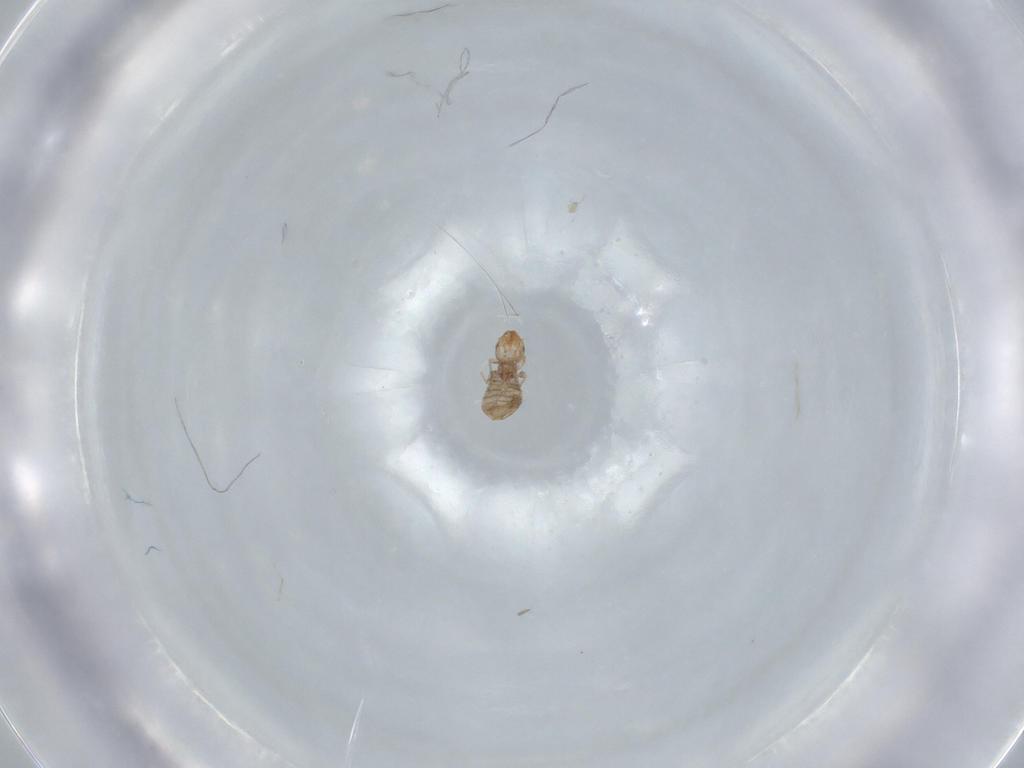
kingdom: Animalia
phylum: Arthropoda
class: Insecta
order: Psocodea
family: Liposcelididae
